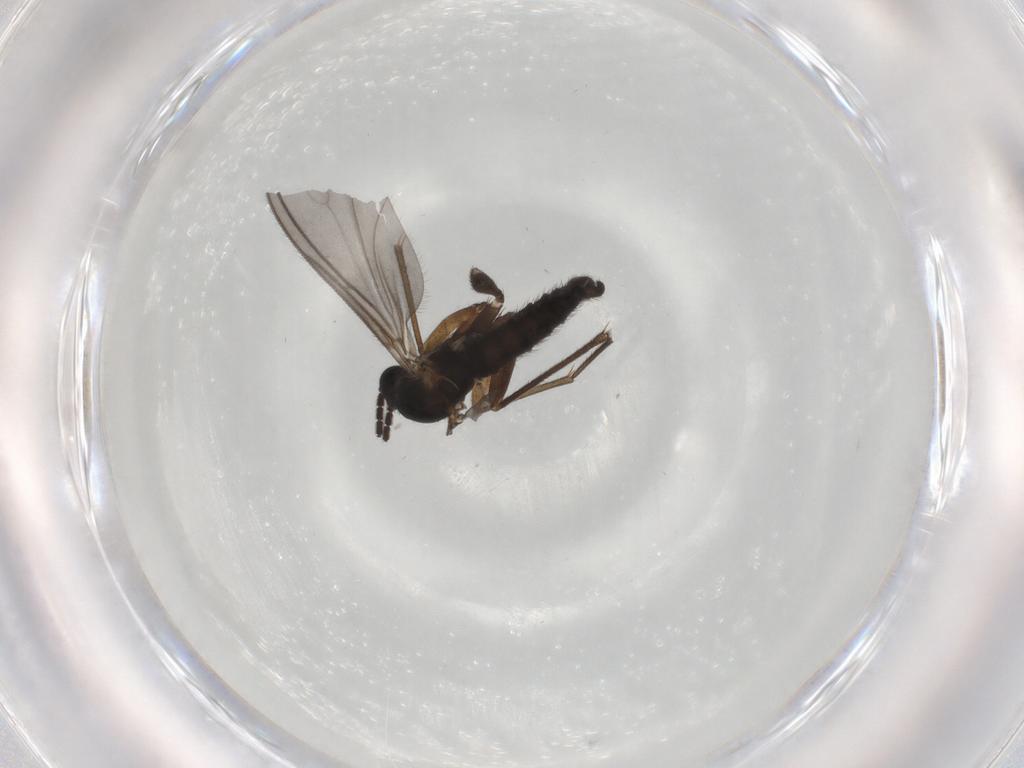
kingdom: Animalia
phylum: Arthropoda
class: Insecta
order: Diptera
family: Sciaridae
